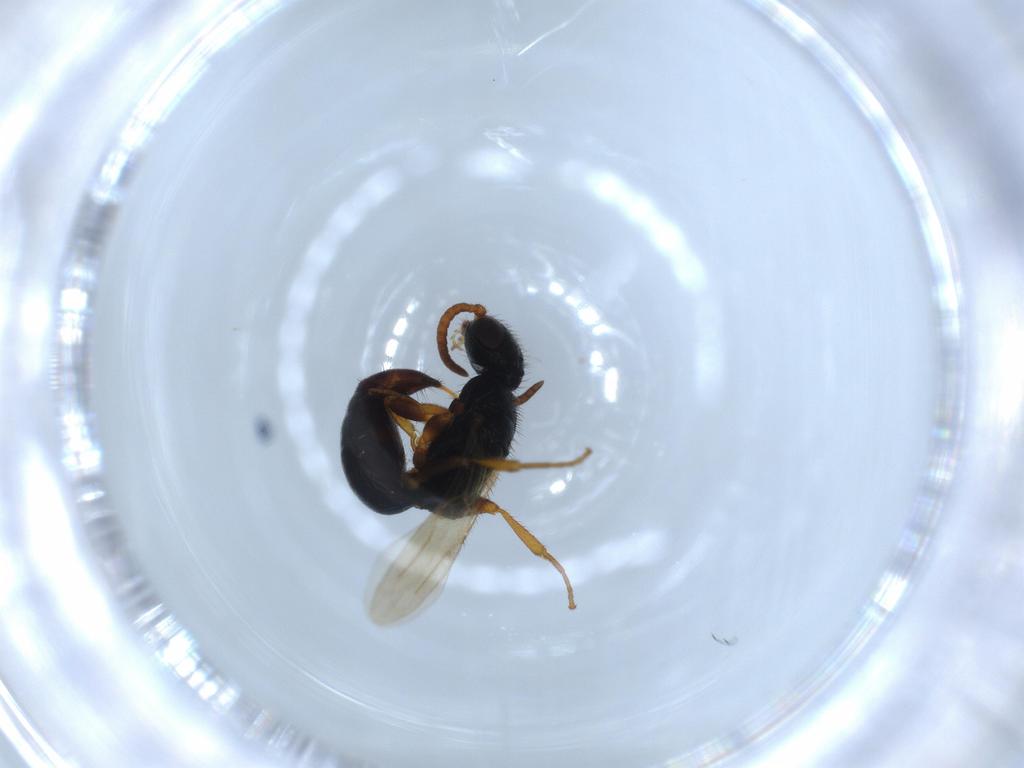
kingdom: Animalia
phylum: Arthropoda
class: Insecta
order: Hymenoptera
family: Bethylidae
